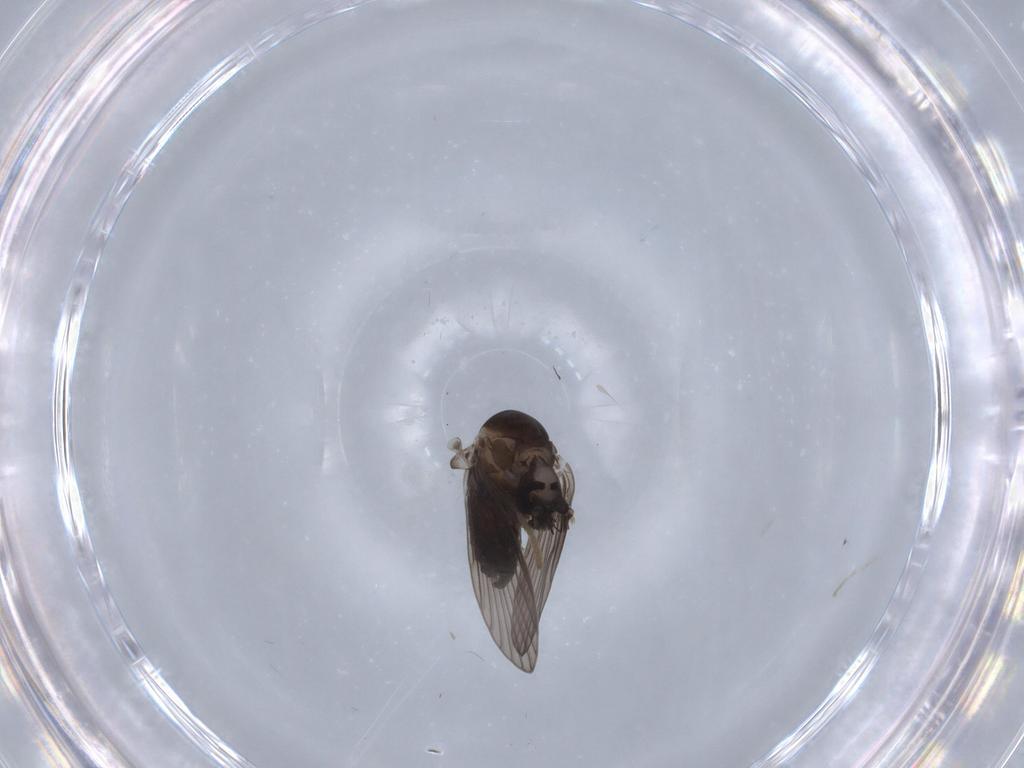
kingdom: Animalia
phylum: Arthropoda
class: Insecta
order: Diptera
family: Psychodidae
